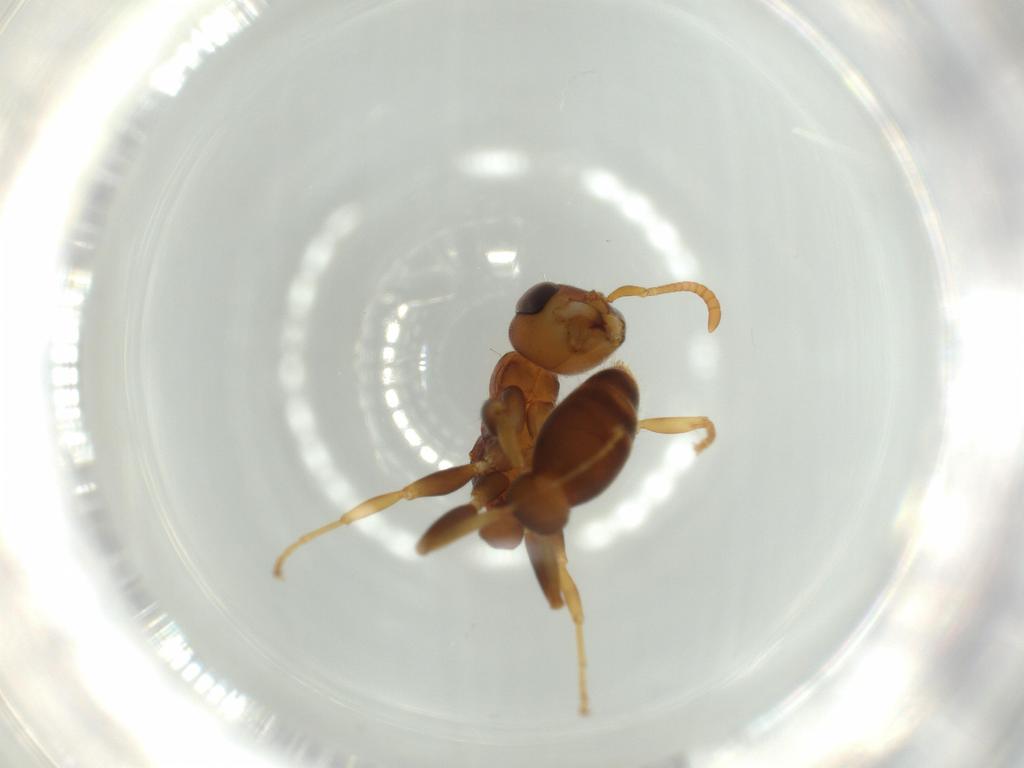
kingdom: Animalia
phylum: Arthropoda
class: Insecta
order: Hymenoptera
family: Formicidae
